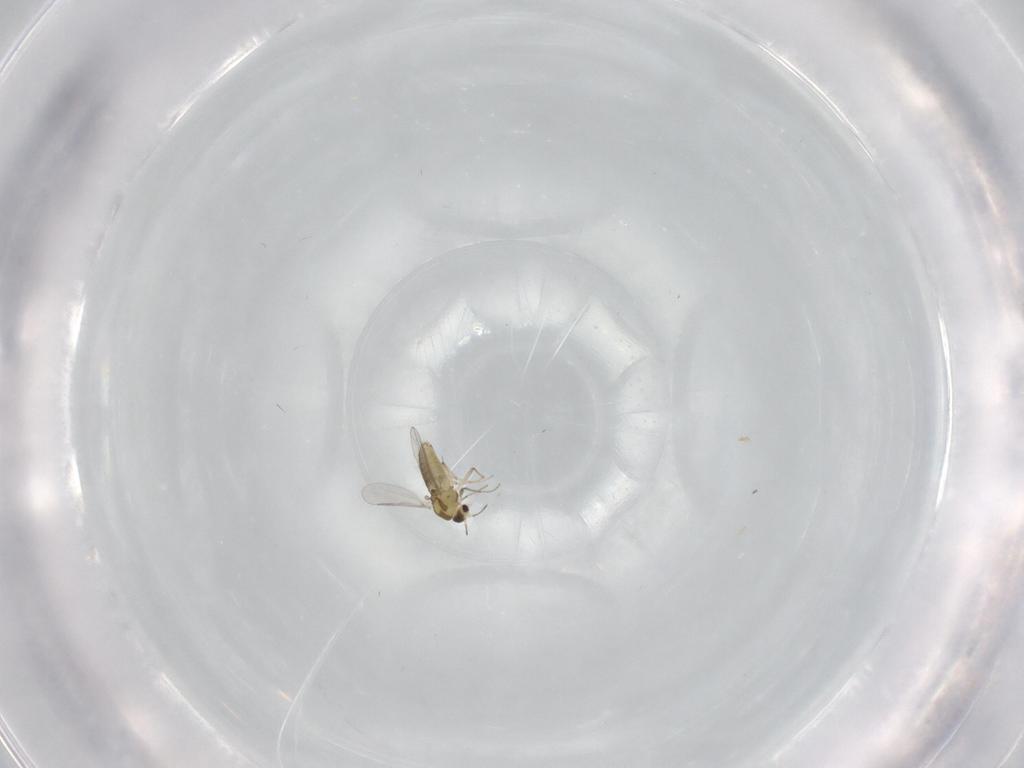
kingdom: Animalia
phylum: Arthropoda
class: Insecta
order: Diptera
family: Chironomidae
